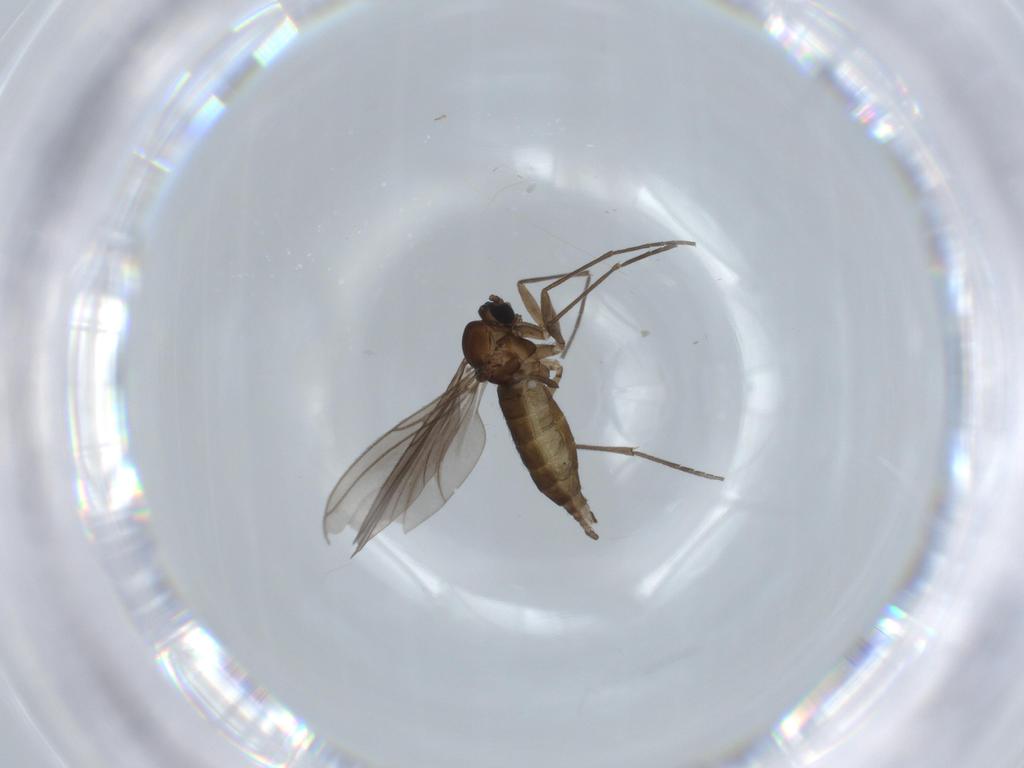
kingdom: Animalia
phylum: Arthropoda
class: Insecta
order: Diptera
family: Sciaridae
